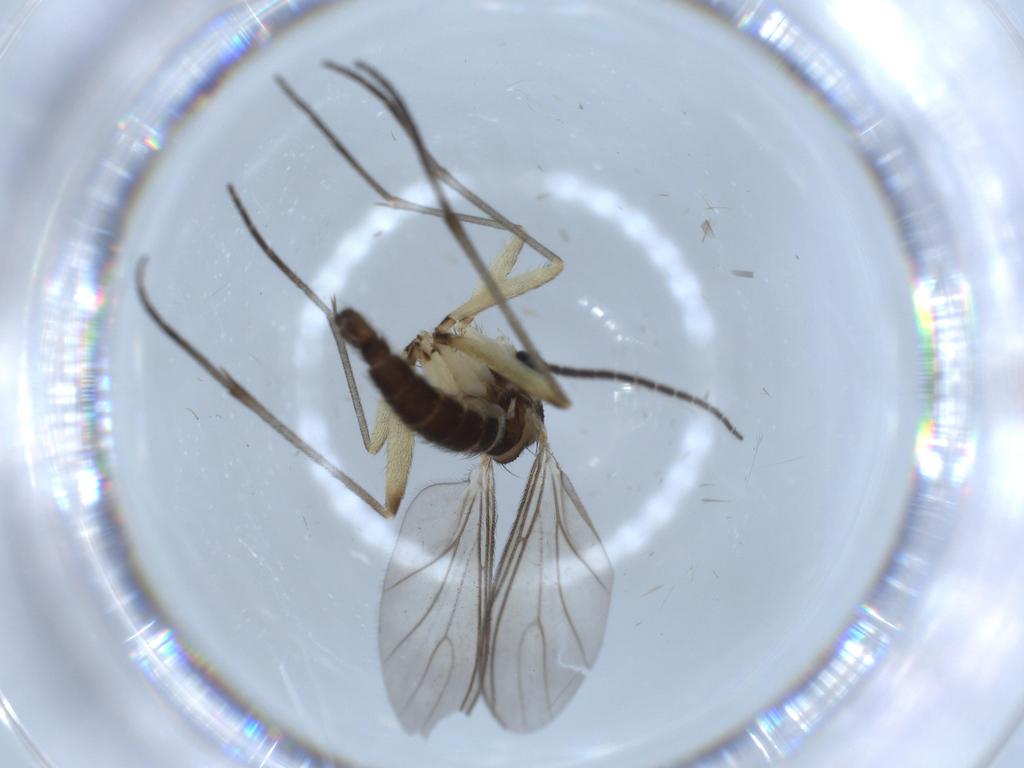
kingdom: Animalia
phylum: Arthropoda
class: Insecta
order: Diptera
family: Sciaridae
